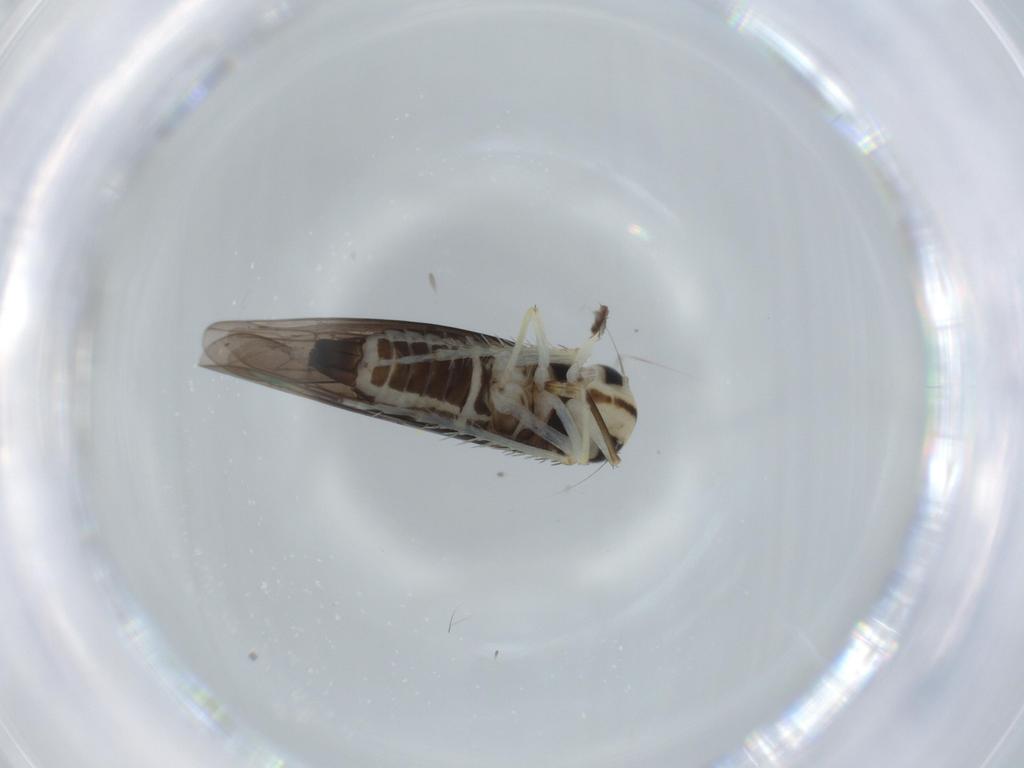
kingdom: Animalia
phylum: Arthropoda
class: Insecta
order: Hemiptera
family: Cicadellidae
